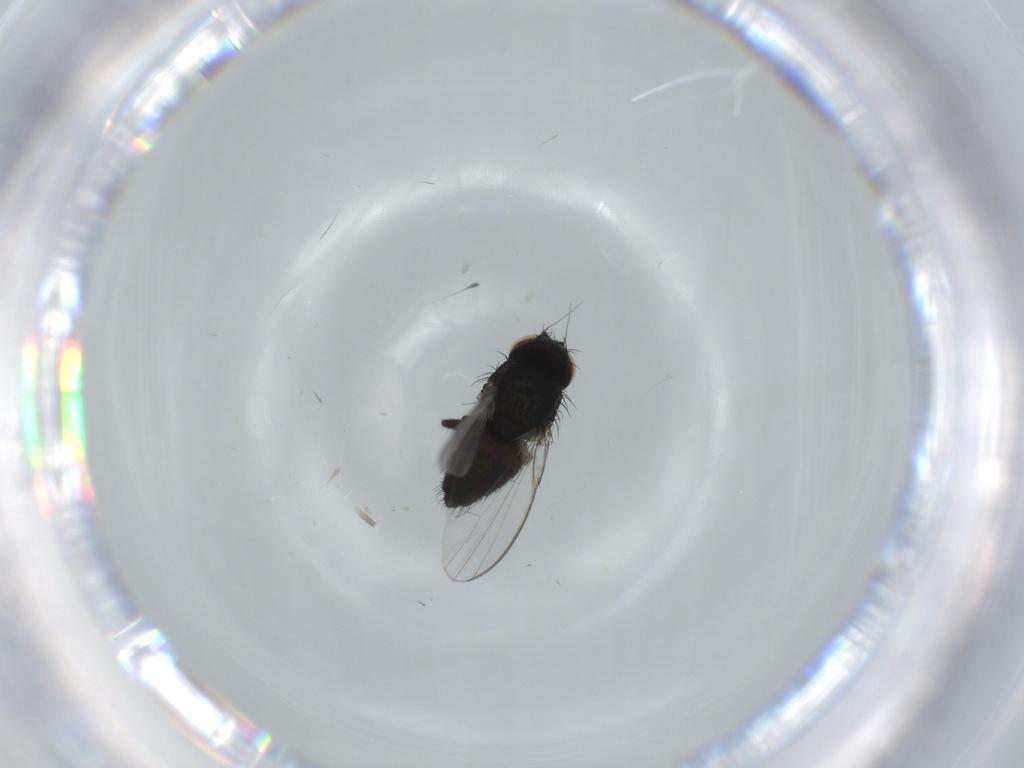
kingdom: Animalia
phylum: Arthropoda
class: Insecta
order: Diptera
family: Milichiidae
